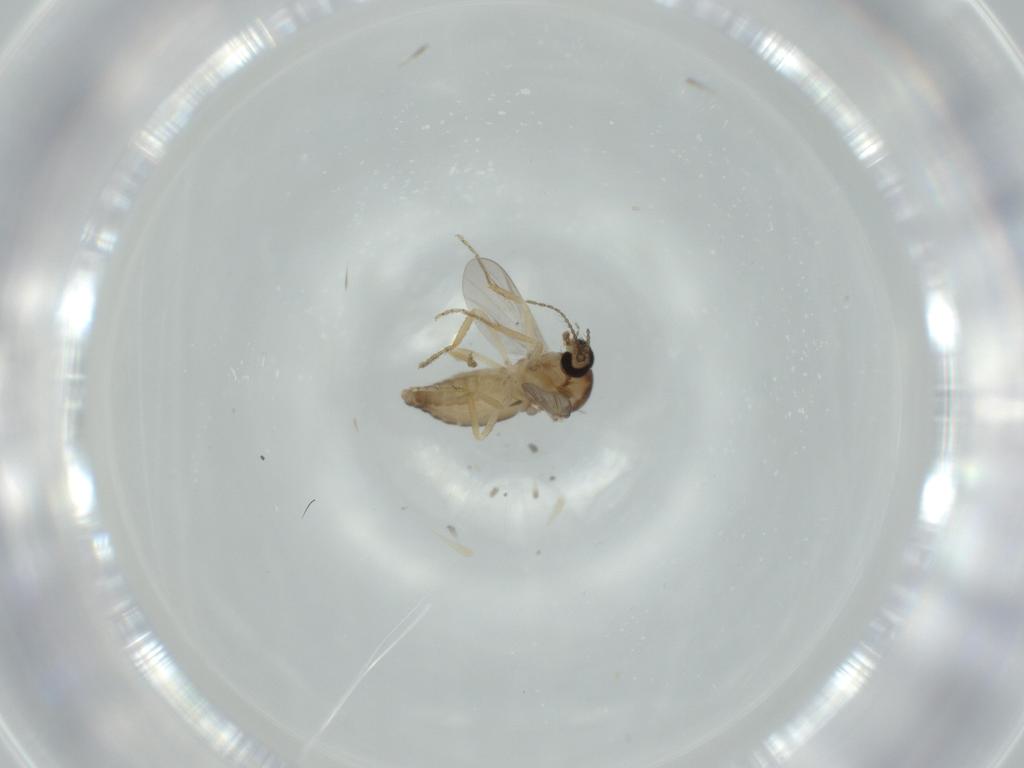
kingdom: Animalia
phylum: Arthropoda
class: Insecta
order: Diptera
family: Ceratopogonidae
